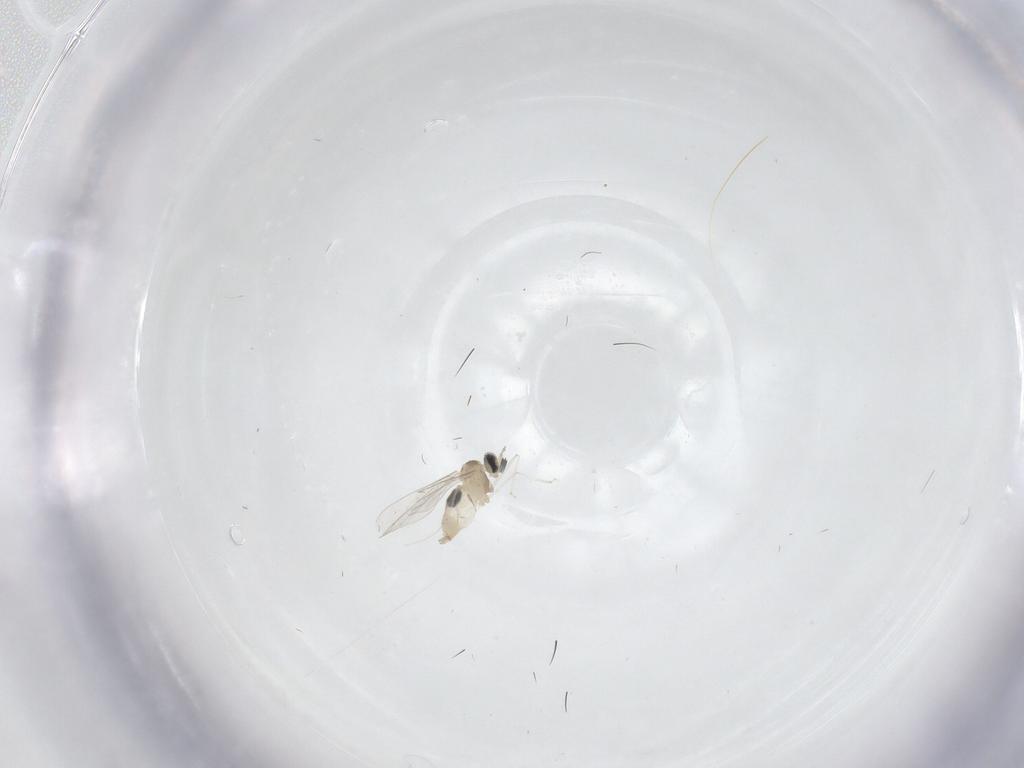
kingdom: Animalia
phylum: Arthropoda
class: Insecta
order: Diptera
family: Cecidomyiidae
